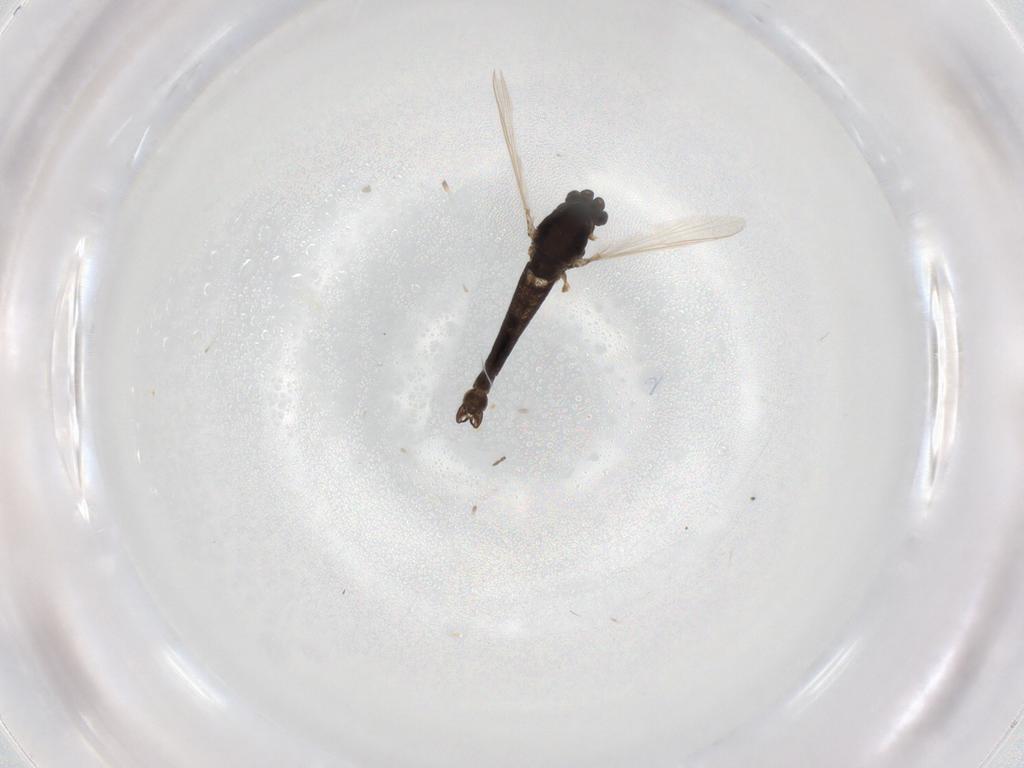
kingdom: Animalia
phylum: Arthropoda
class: Insecta
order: Diptera
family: Chironomidae
